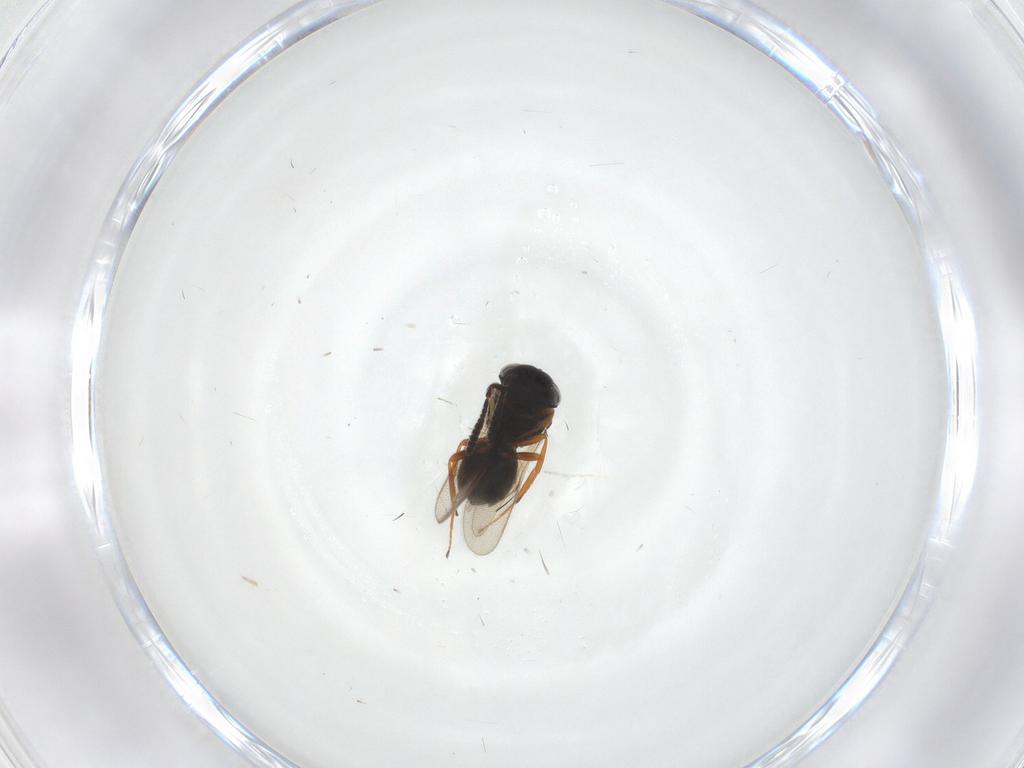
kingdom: Animalia
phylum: Arthropoda
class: Insecta
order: Hymenoptera
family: Scelionidae
